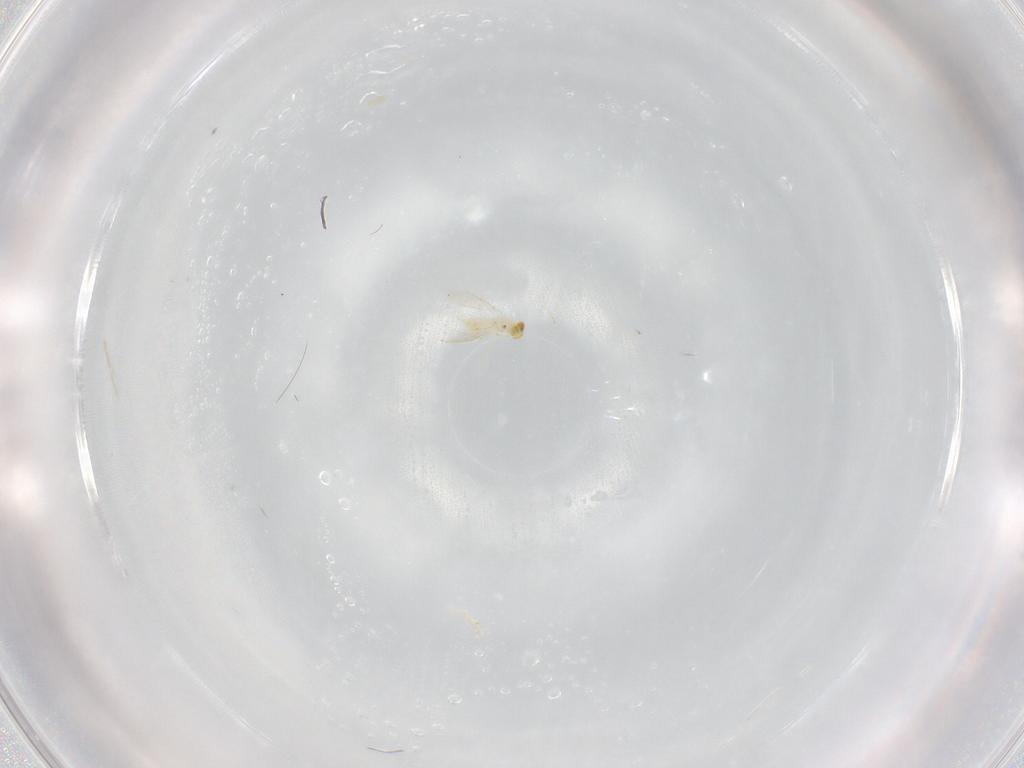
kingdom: Animalia
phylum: Arthropoda
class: Insecta
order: Hymenoptera
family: Aphelinidae
